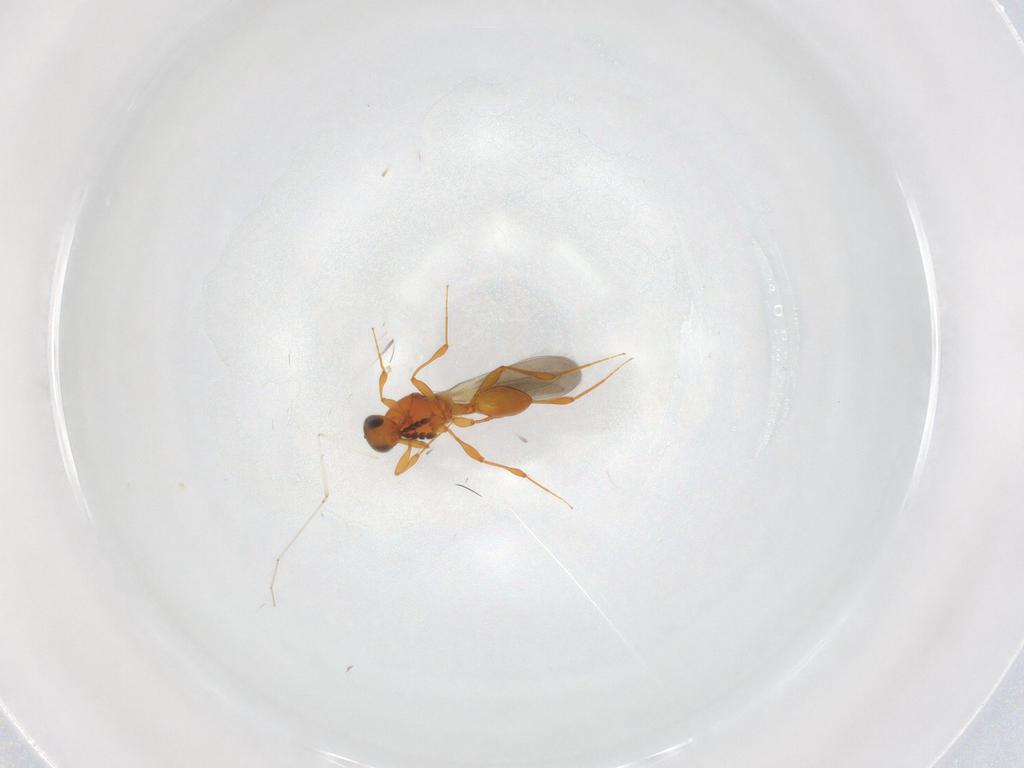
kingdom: Animalia
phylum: Arthropoda
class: Insecta
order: Hymenoptera
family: Platygastridae
